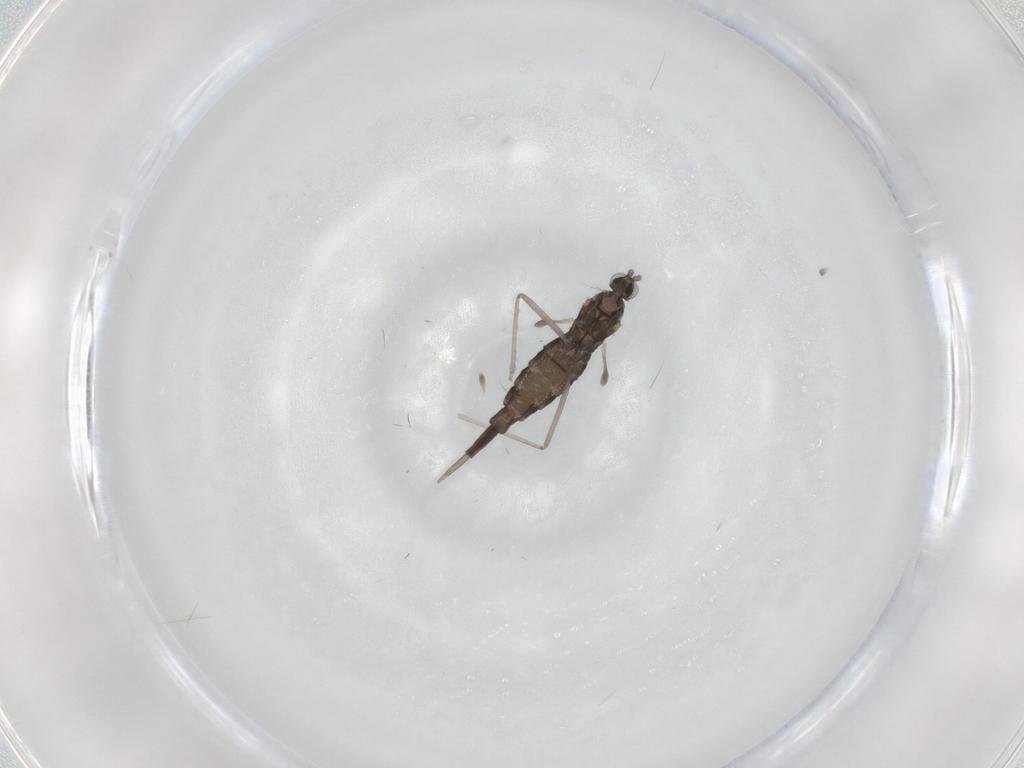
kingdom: Animalia
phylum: Arthropoda
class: Insecta
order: Diptera
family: Cecidomyiidae
